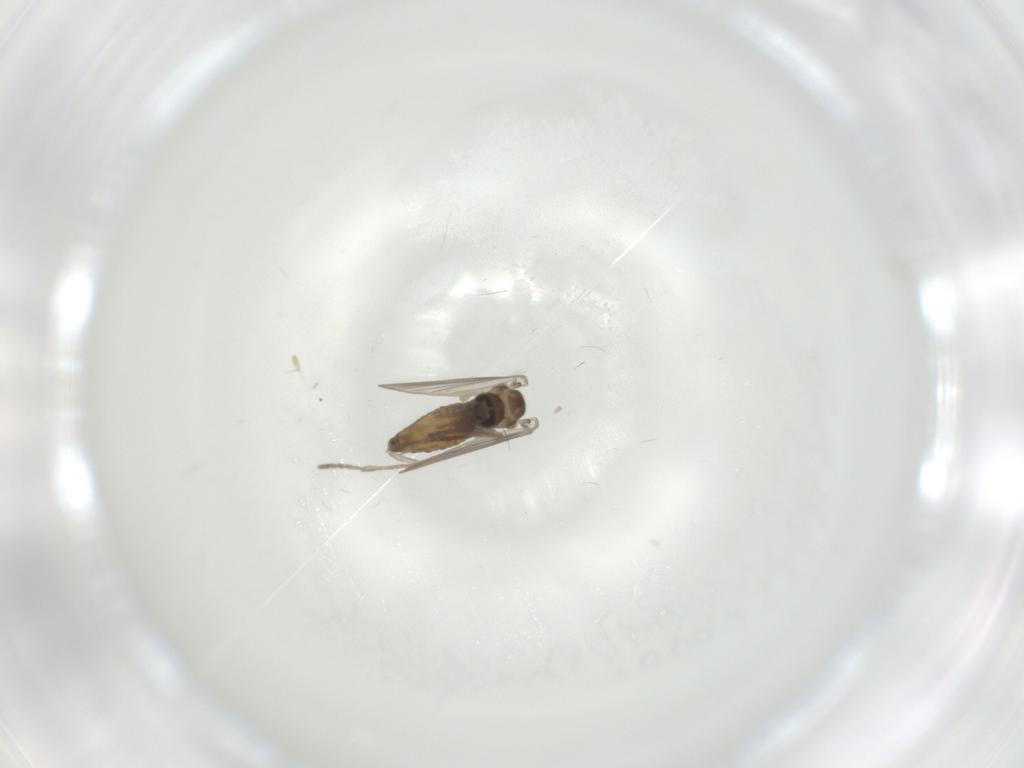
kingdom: Animalia
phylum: Arthropoda
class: Insecta
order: Diptera
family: Psychodidae
